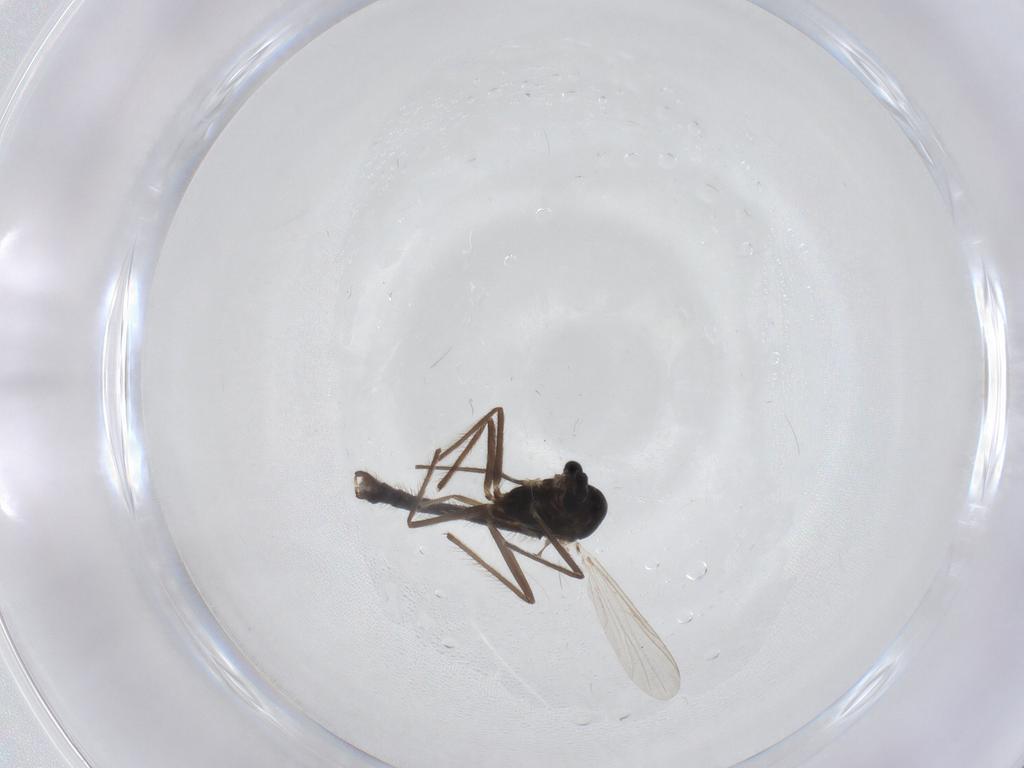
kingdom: Animalia
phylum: Arthropoda
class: Insecta
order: Diptera
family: Chironomidae
